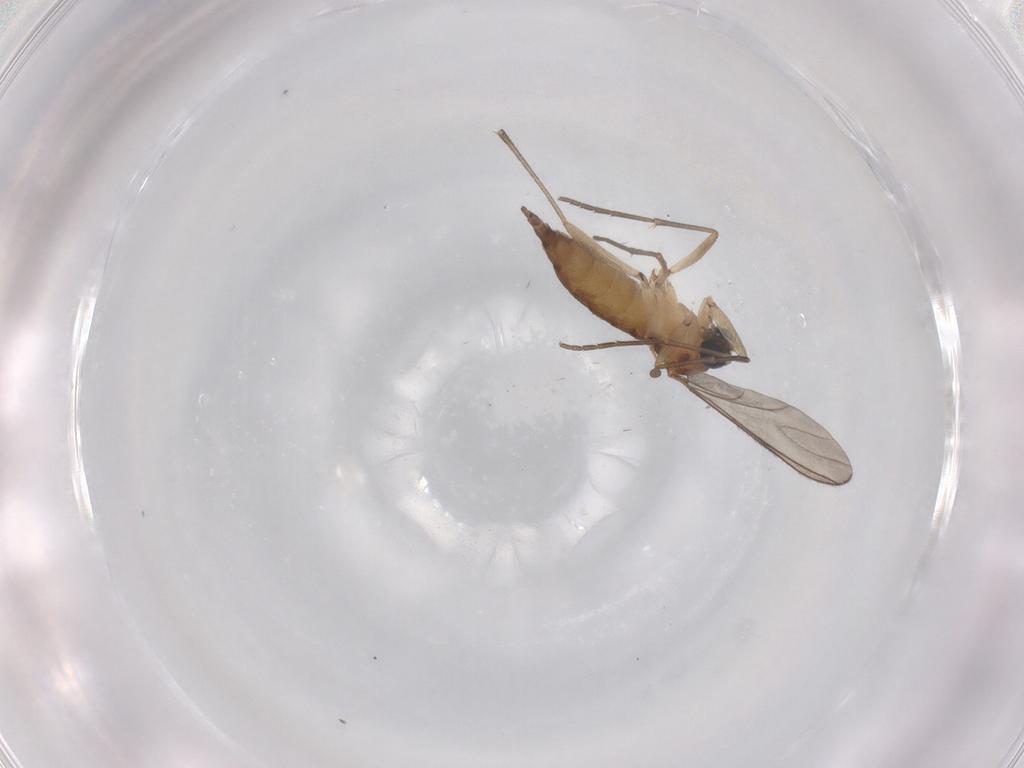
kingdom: Animalia
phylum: Arthropoda
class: Insecta
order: Diptera
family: Sciaridae
